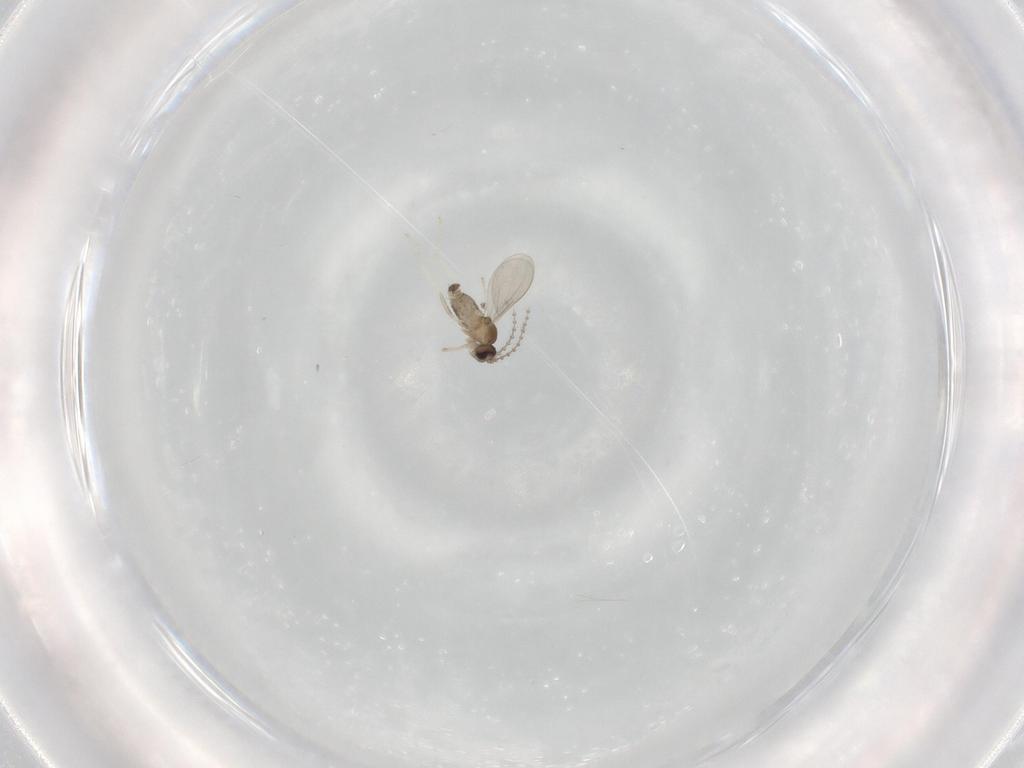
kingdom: Animalia
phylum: Arthropoda
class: Insecta
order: Diptera
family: Cecidomyiidae
